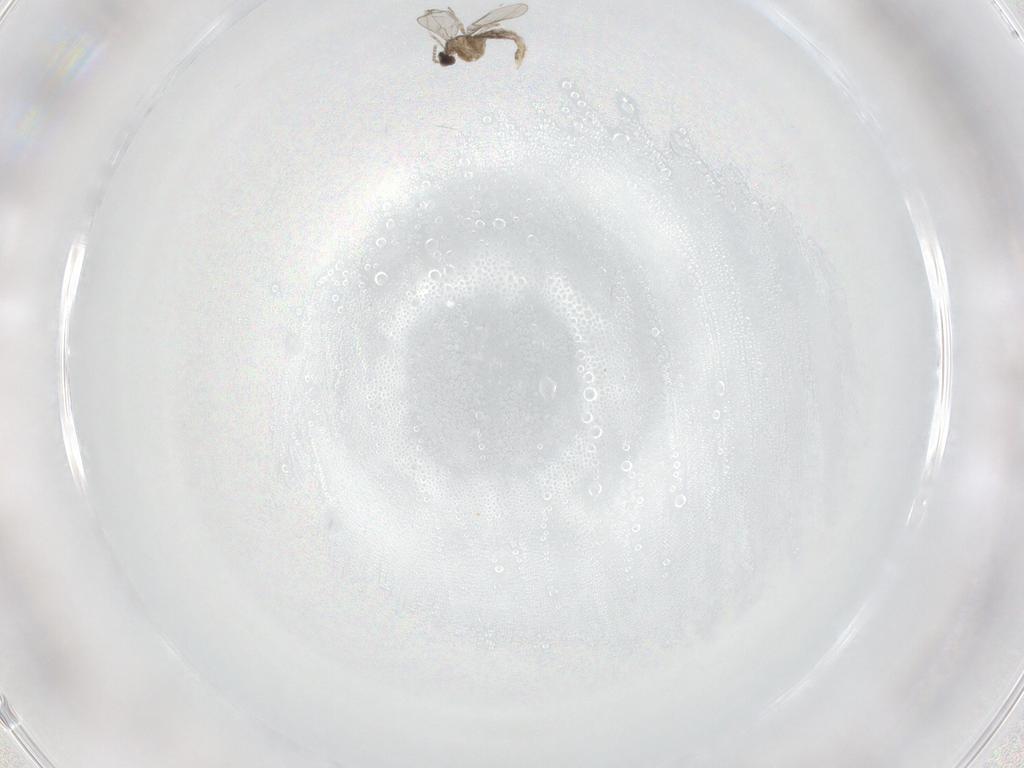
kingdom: Animalia
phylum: Arthropoda
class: Insecta
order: Diptera
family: Cecidomyiidae
